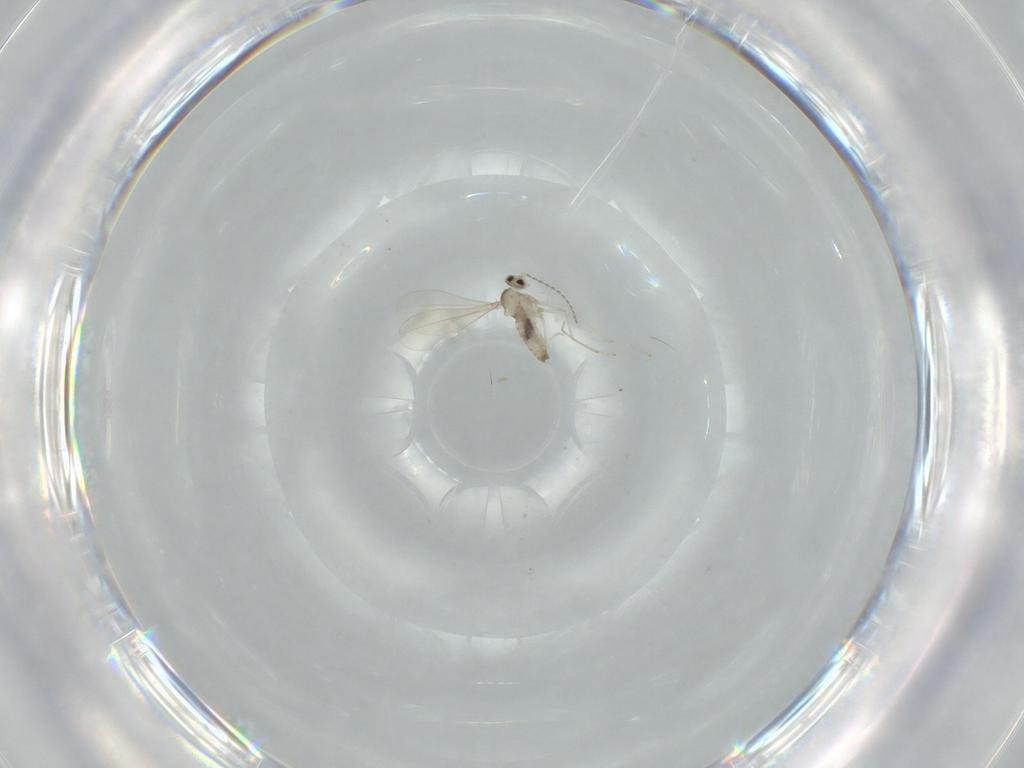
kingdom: Animalia
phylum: Arthropoda
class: Insecta
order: Diptera
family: Cecidomyiidae
